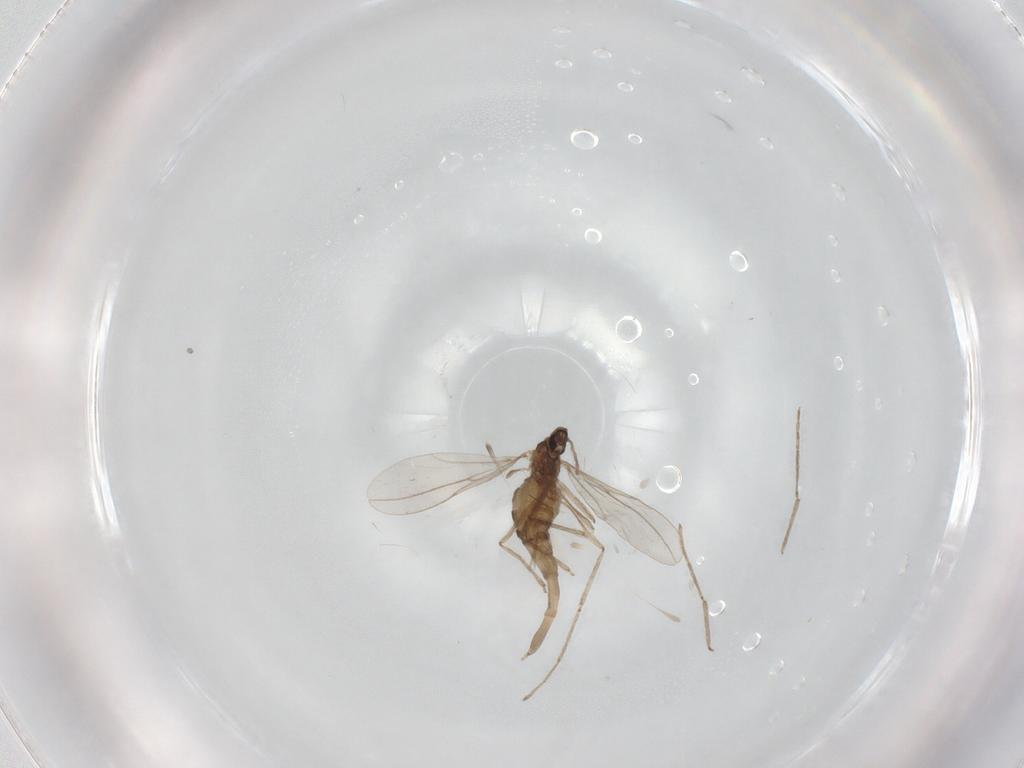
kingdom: Animalia
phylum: Arthropoda
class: Insecta
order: Diptera
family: Cecidomyiidae
